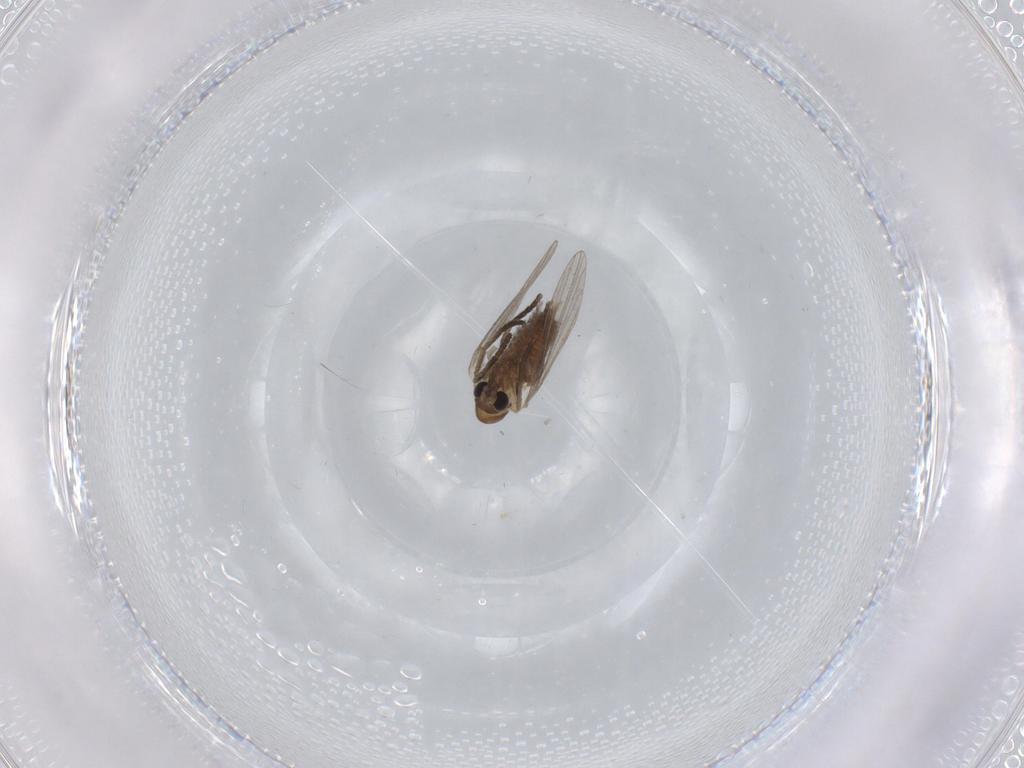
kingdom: Animalia
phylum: Arthropoda
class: Insecta
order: Diptera
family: Psychodidae
